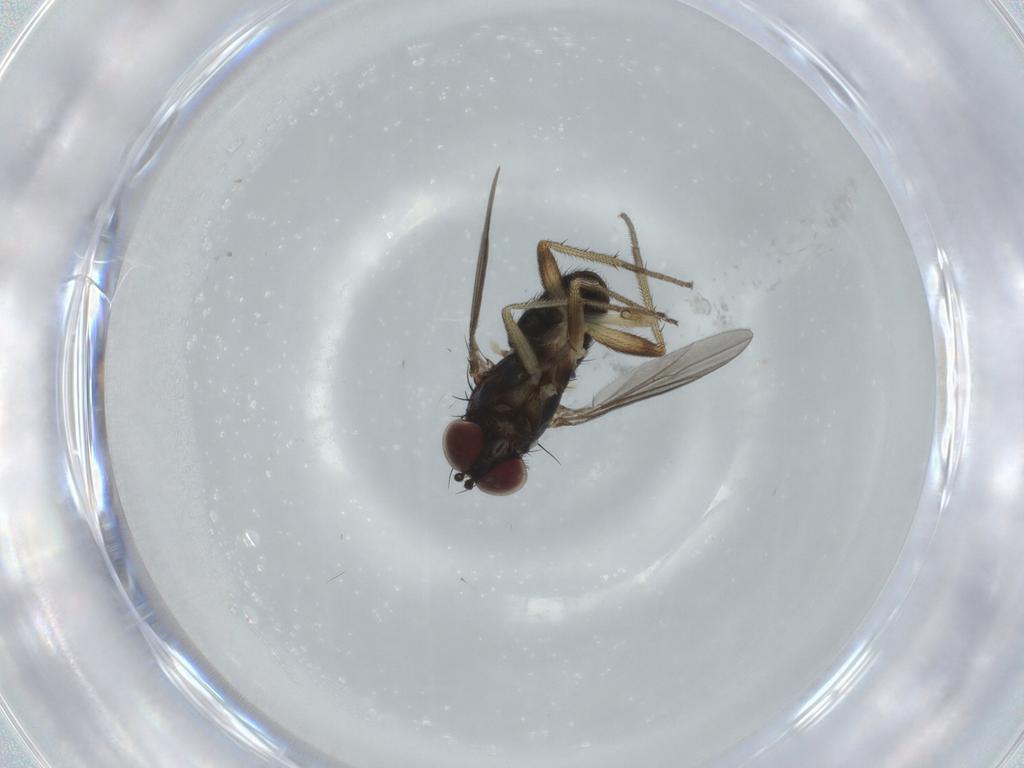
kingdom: Animalia
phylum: Arthropoda
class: Insecta
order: Diptera
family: Dolichopodidae
